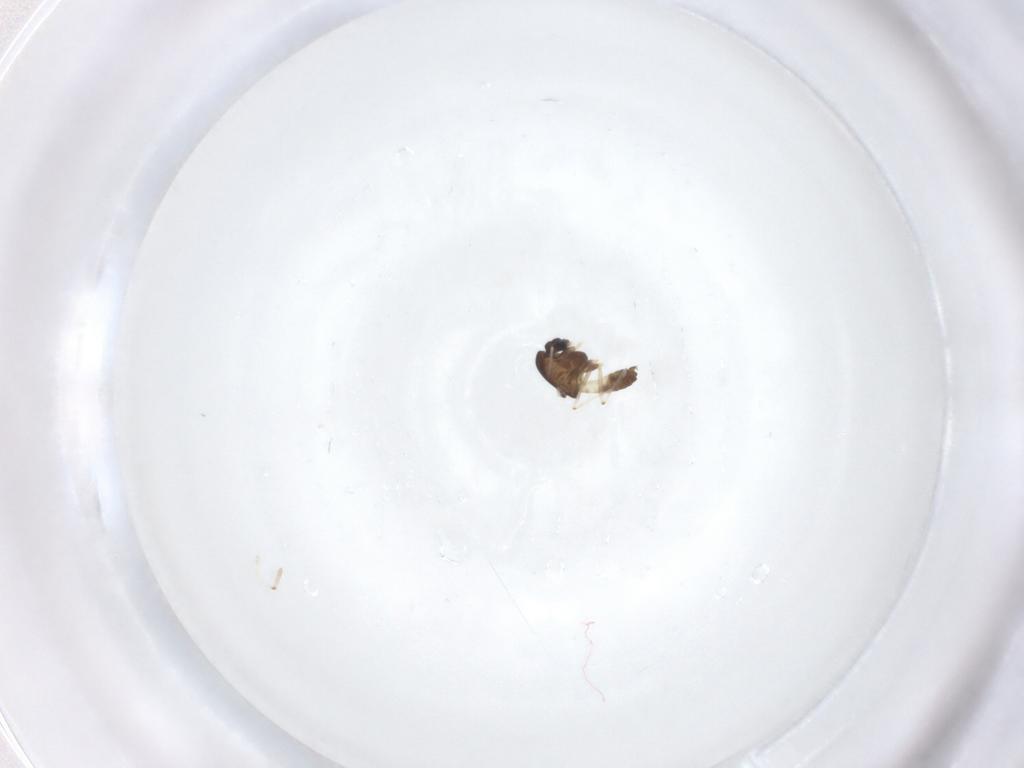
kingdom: Animalia
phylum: Arthropoda
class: Insecta
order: Diptera
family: Chironomidae
